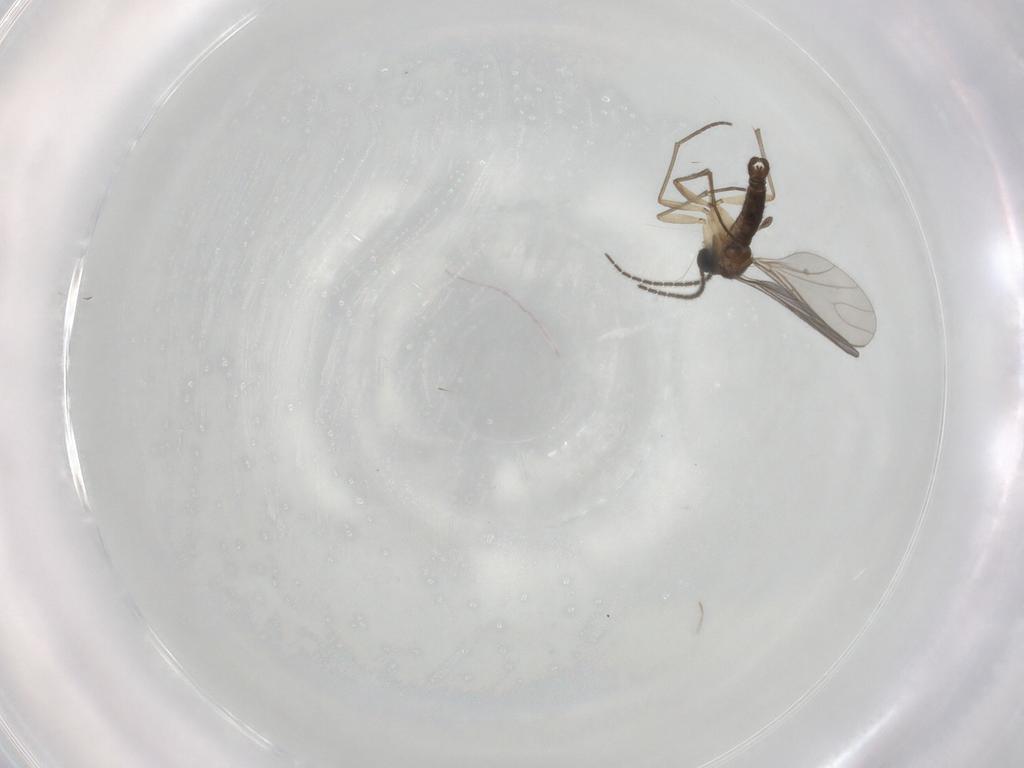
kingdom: Animalia
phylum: Arthropoda
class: Insecta
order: Diptera
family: Sciaridae
